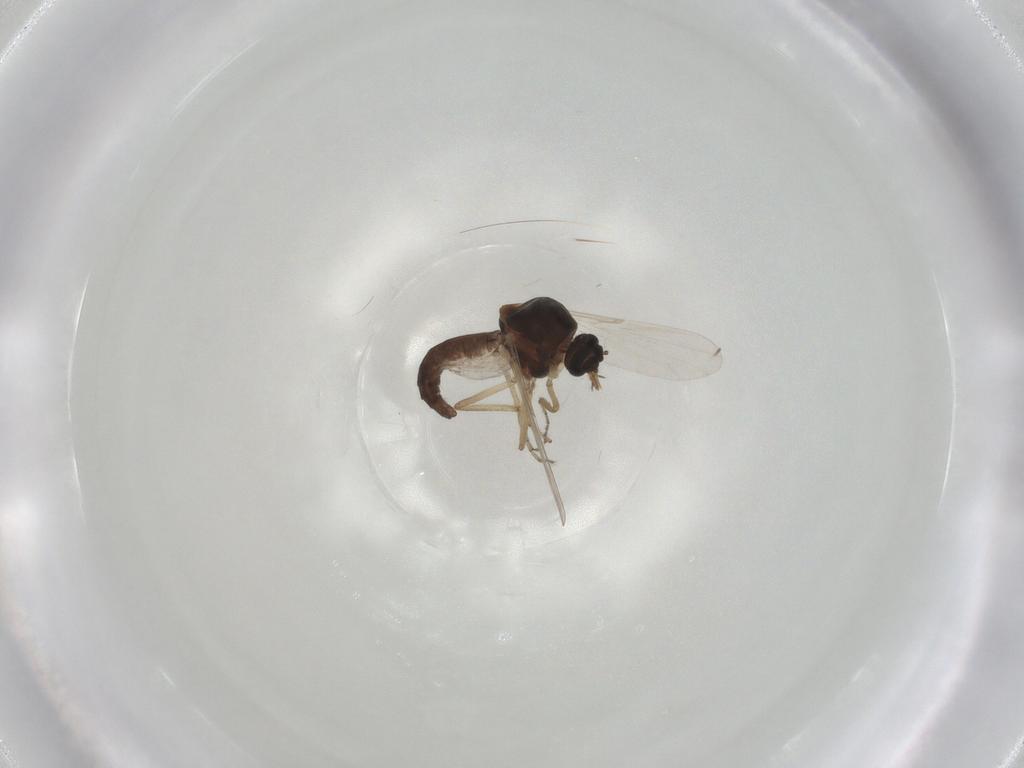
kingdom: Animalia
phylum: Arthropoda
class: Insecta
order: Diptera
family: Ceratopogonidae
